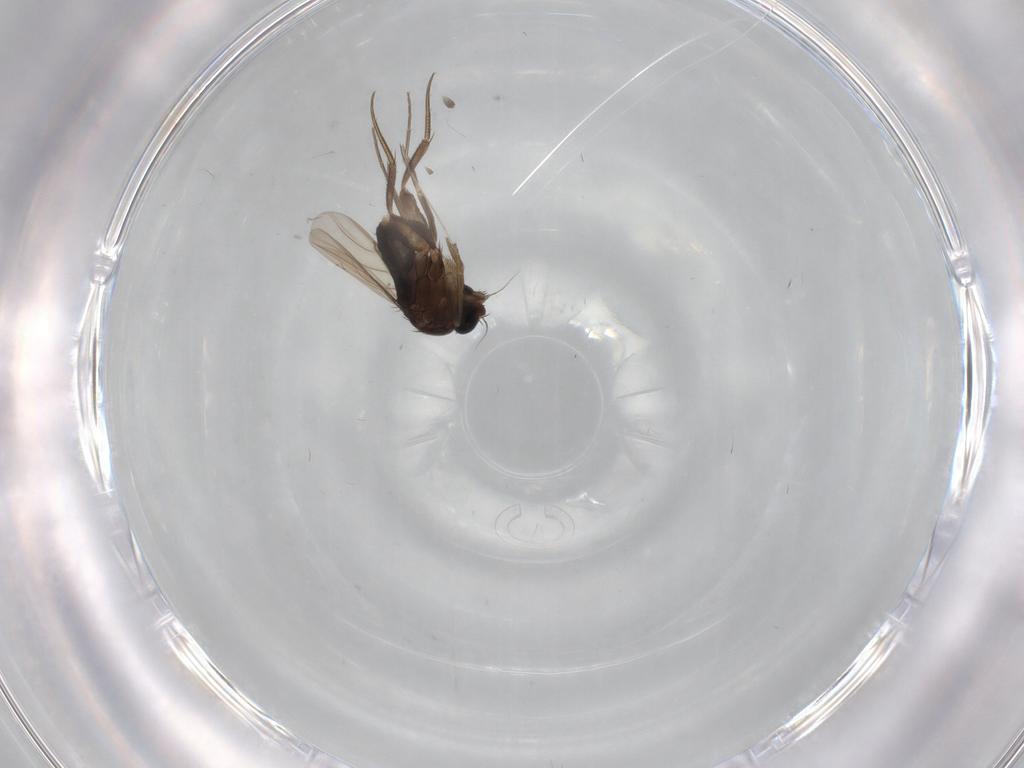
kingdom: Animalia
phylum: Arthropoda
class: Insecta
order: Diptera
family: Phoridae
